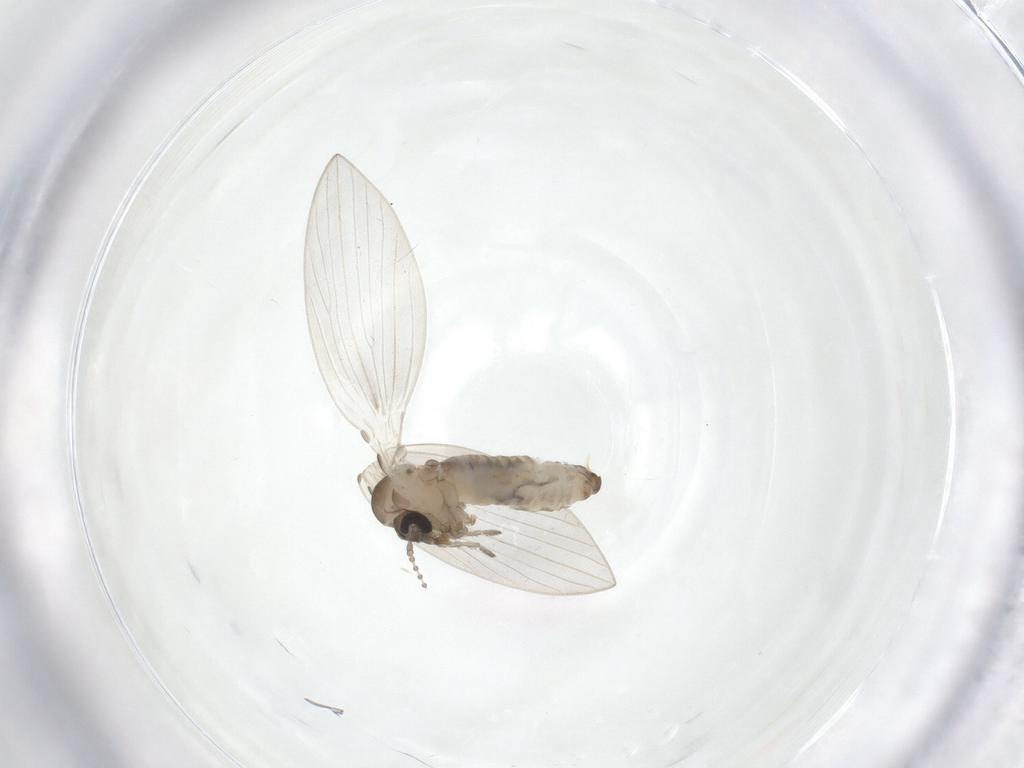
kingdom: Animalia
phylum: Arthropoda
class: Insecta
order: Diptera
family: Psychodidae
